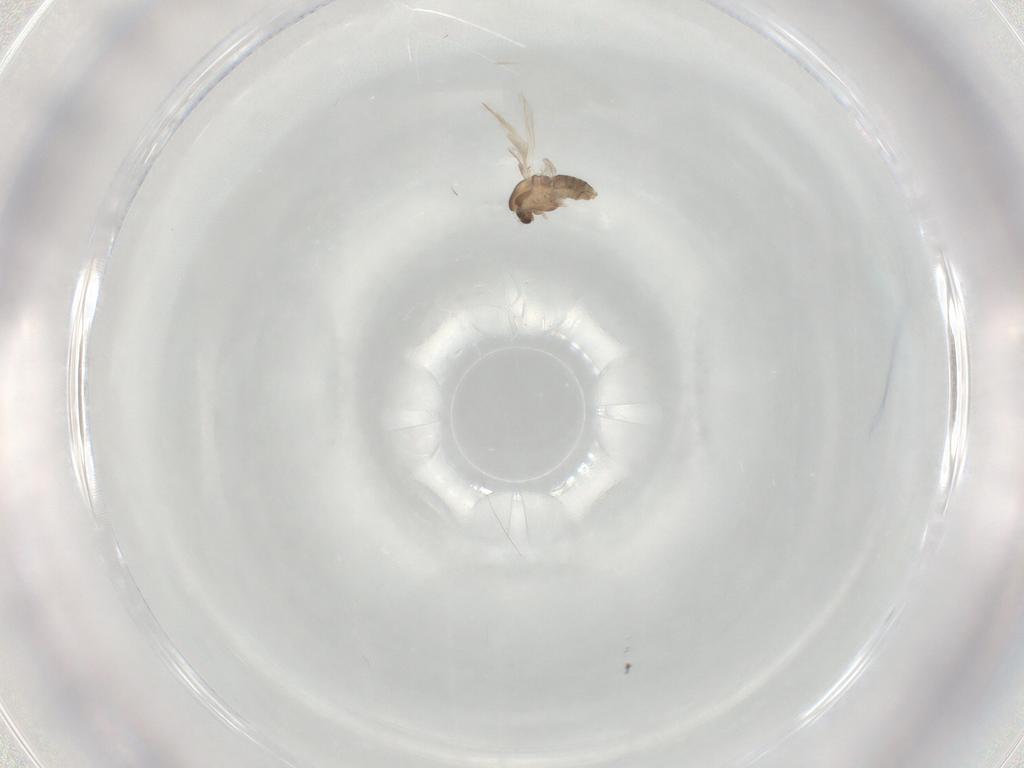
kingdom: Animalia
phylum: Arthropoda
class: Insecta
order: Diptera
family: Chironomidae
